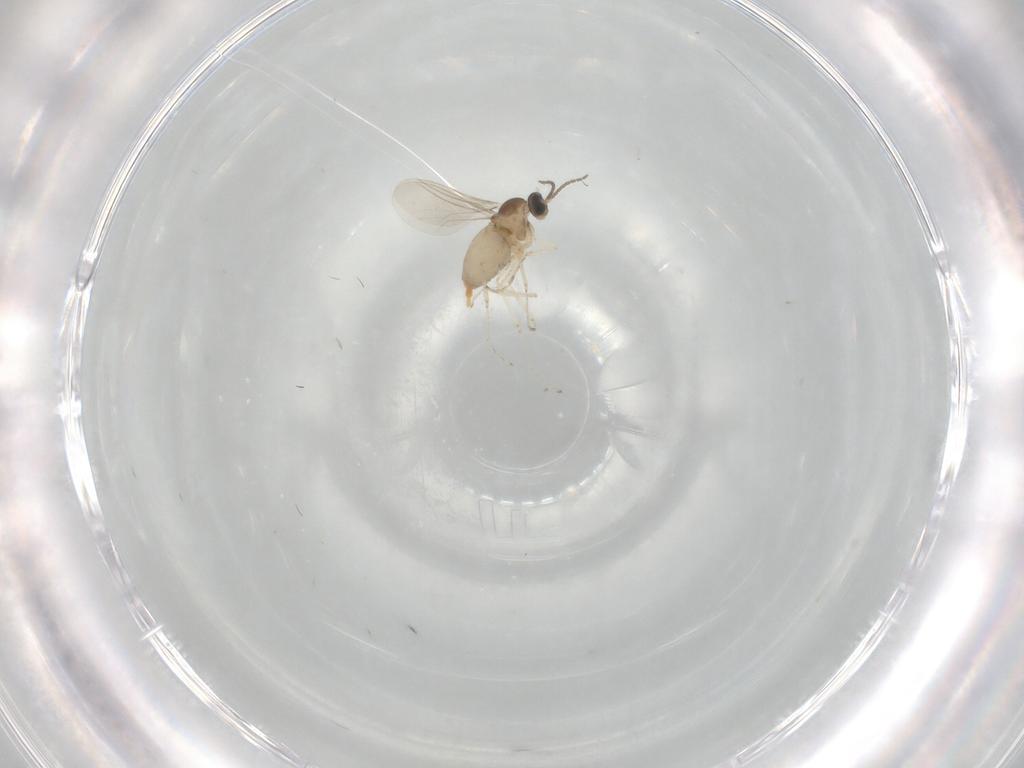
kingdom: Animalia
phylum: Arthropoda
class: Insecta
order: Diptera
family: Cecidomyiidae
